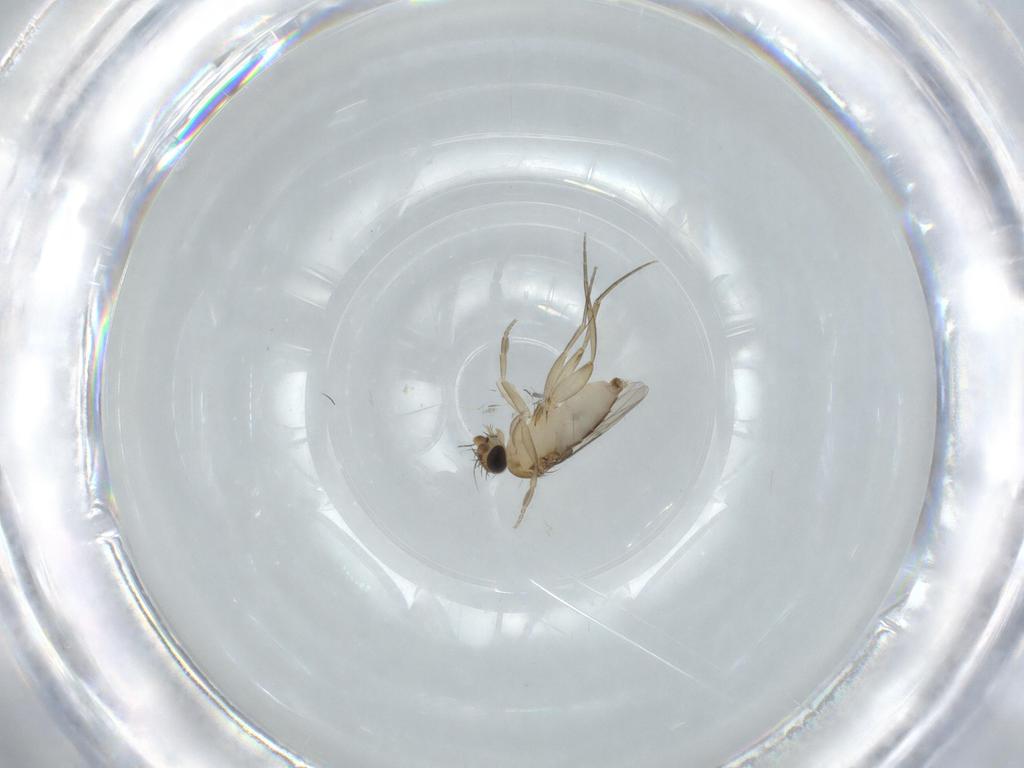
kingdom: Animalia
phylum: Arthropoda
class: Insecta
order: Diptera
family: Phoridae
